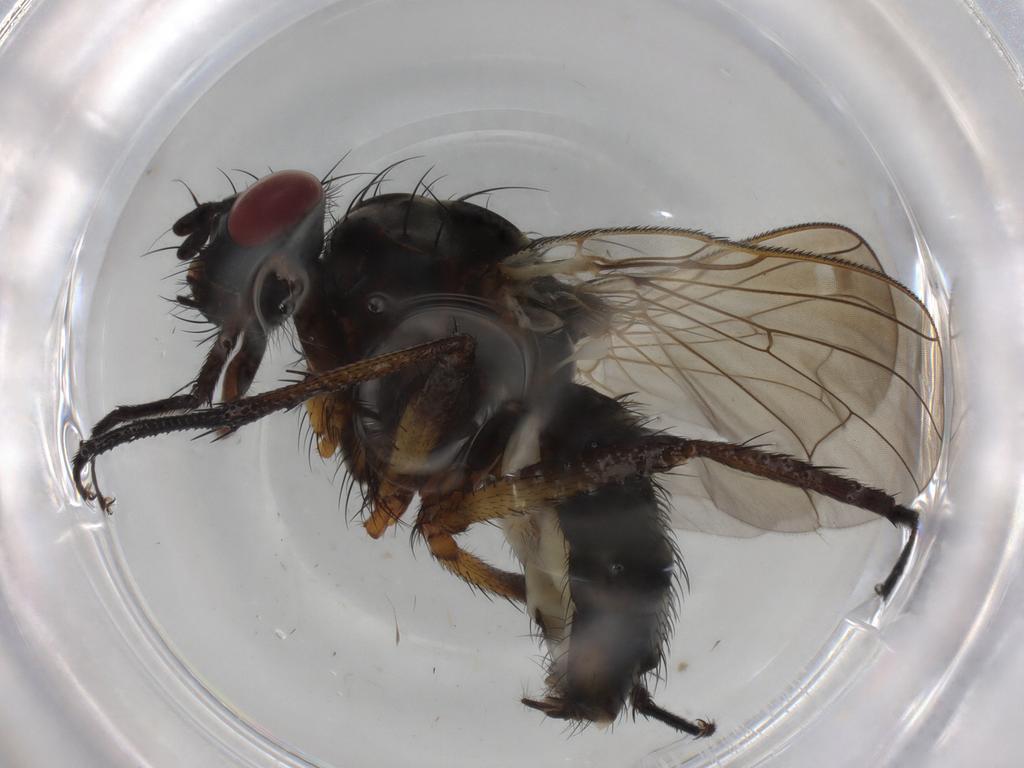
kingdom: Animalia
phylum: Arthropoda
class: Insecta
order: Diptera
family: Anthomyiidae
